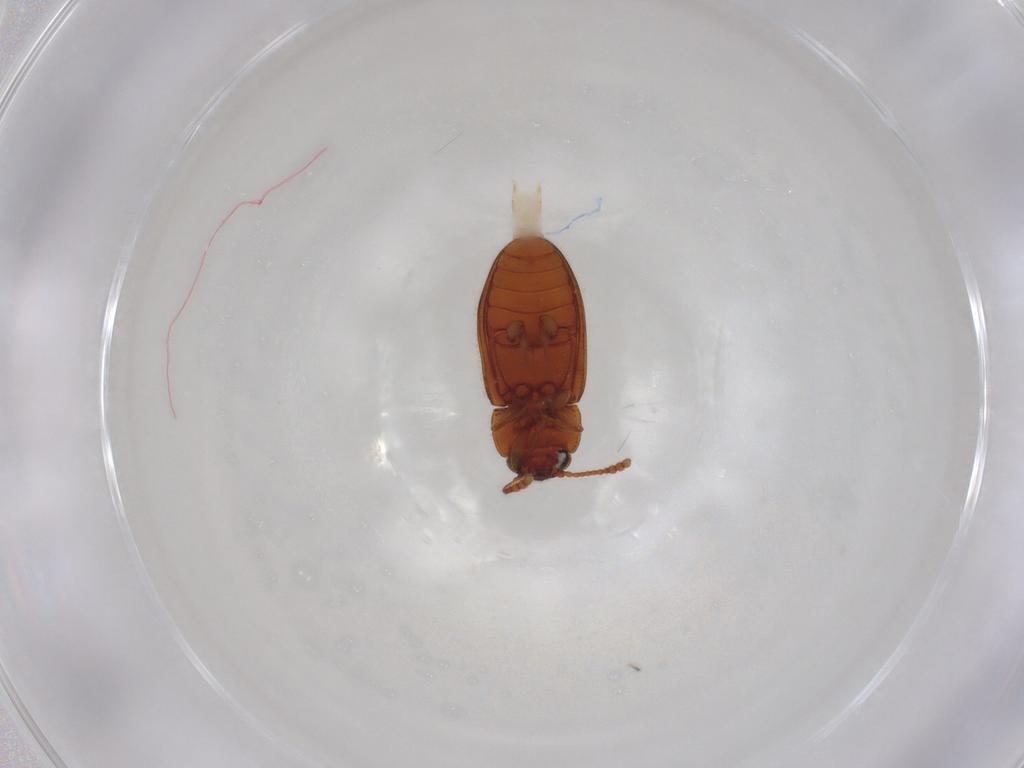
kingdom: Animalia
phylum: Arthropoda
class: Insecta
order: Coleoptera
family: Erotylidae
